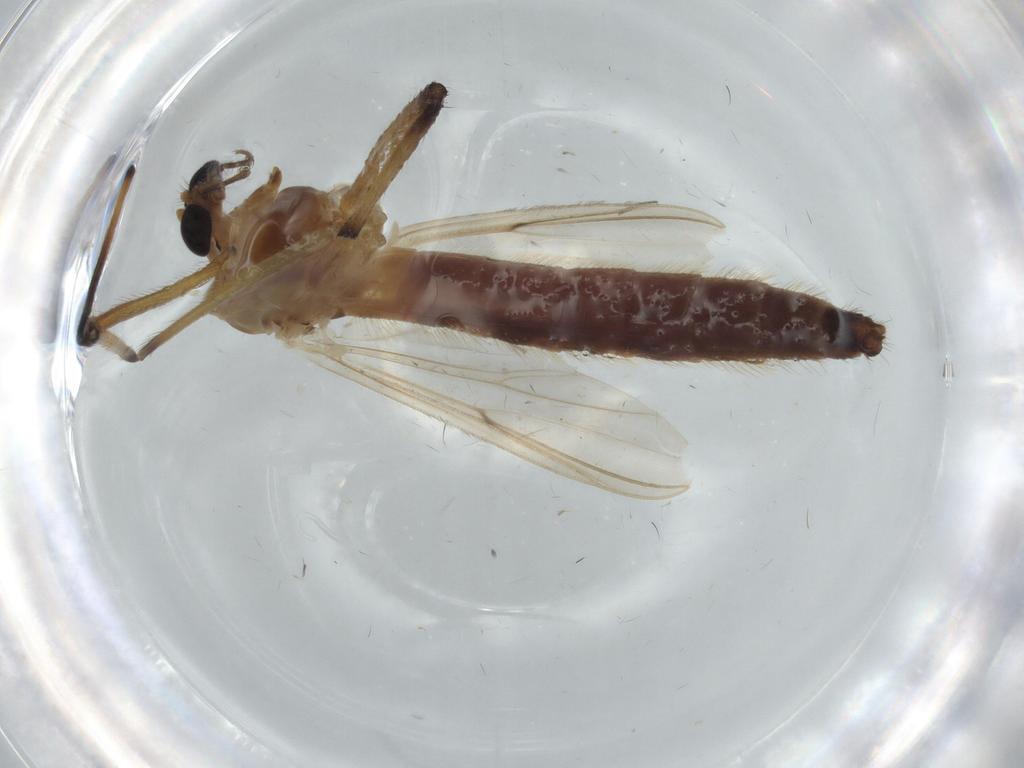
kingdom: Animalia
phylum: Arthropoda
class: Insecta
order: Diptera
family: Chironomidae
